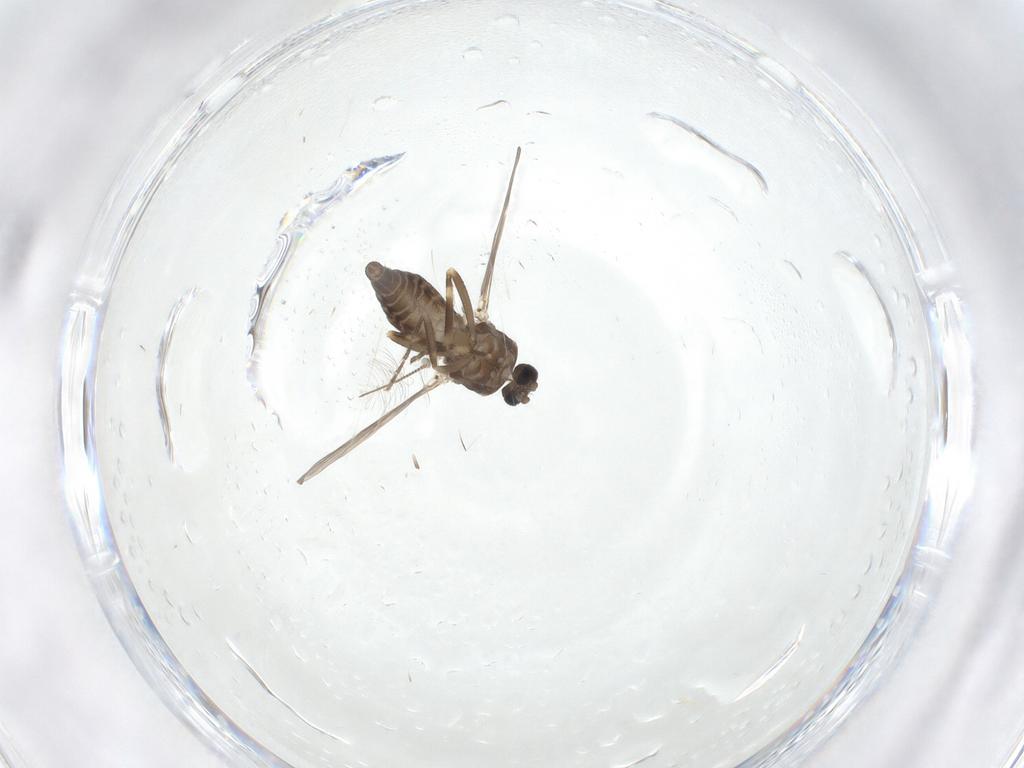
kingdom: Animalia
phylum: Arthropoda
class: Insecta
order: Diptera
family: Ceratopogonidae
